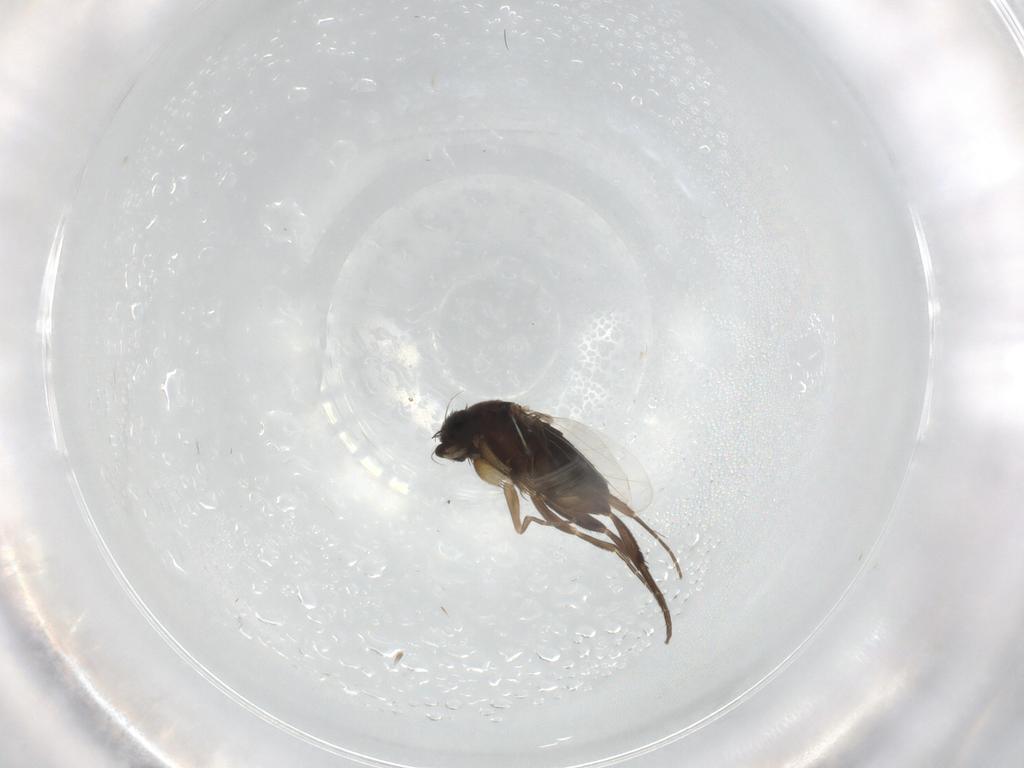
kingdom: Animalia
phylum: Arthropoda
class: Insecta
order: Diptera
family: Phoridae
